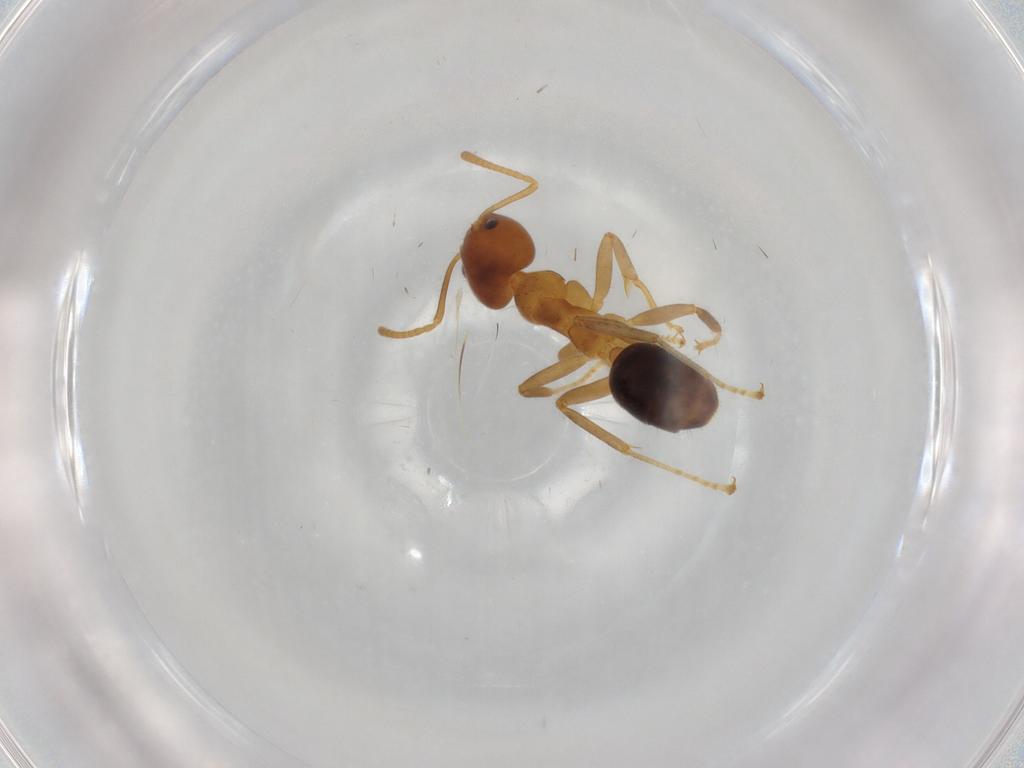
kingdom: Animalia
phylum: Arthropoda
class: Insecta
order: Hymenoptera
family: Formicidae
